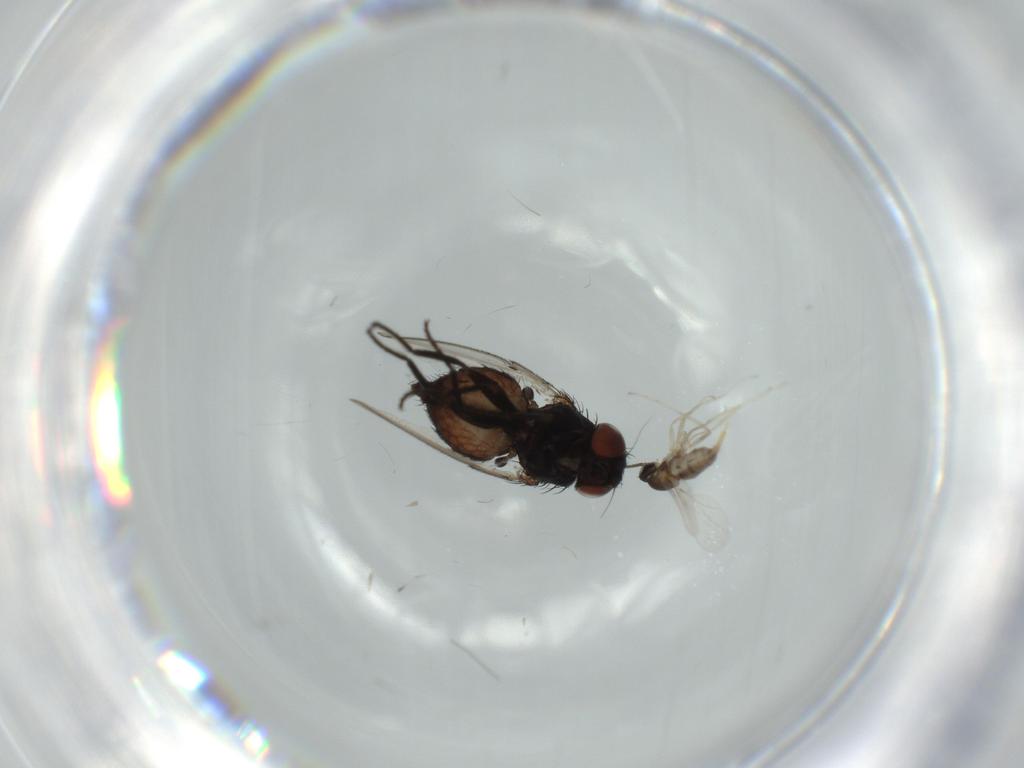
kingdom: Animalia
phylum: Arthropoda
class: Insecta
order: Diptera
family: Milichiidae
